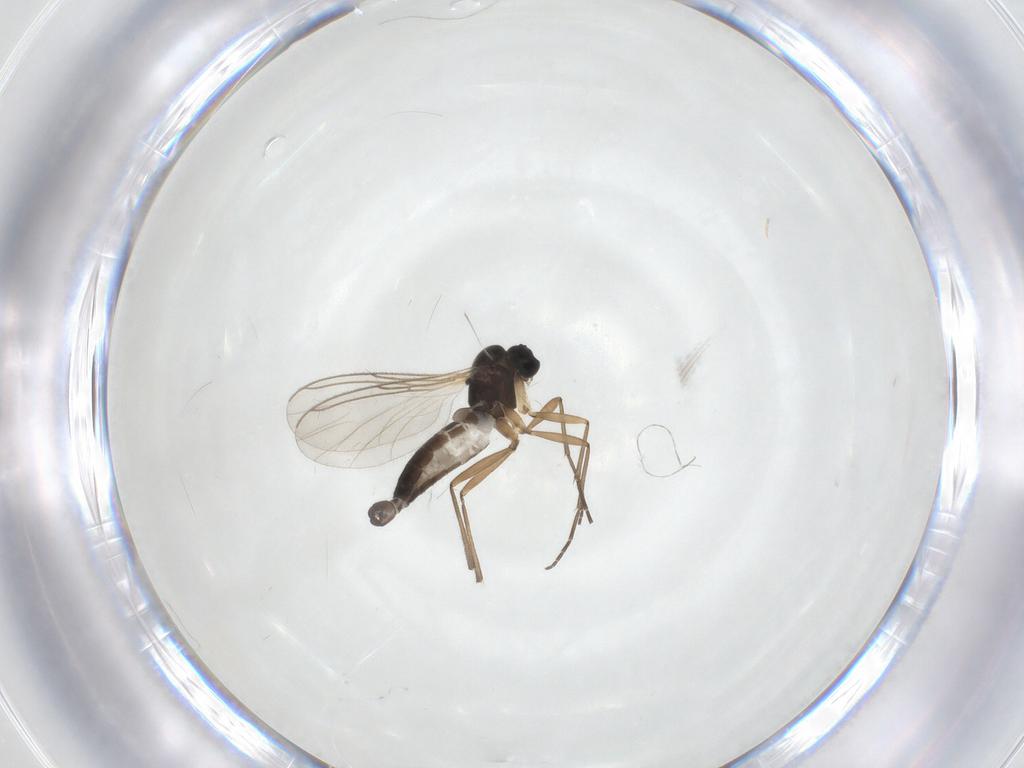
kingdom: Animalia
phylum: Arthropoda
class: Insecta
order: Diptera
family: Sciaridae
